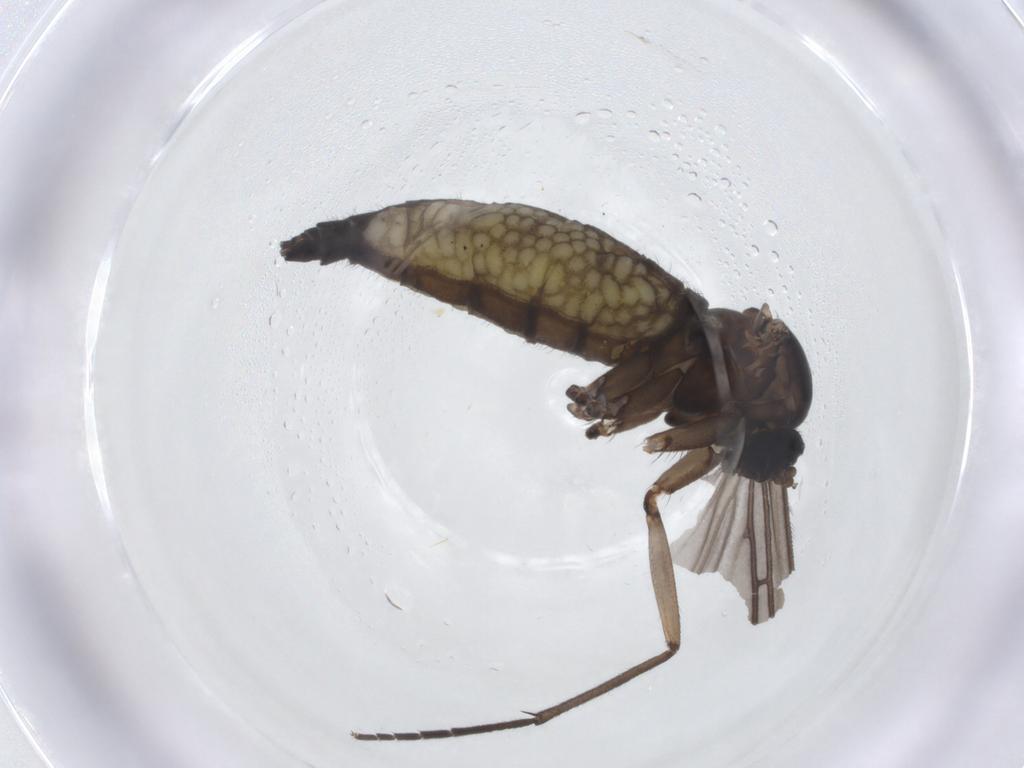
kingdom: Animalia
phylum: Arthropoda
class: Insecta
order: Diptera
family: Sciaridae
